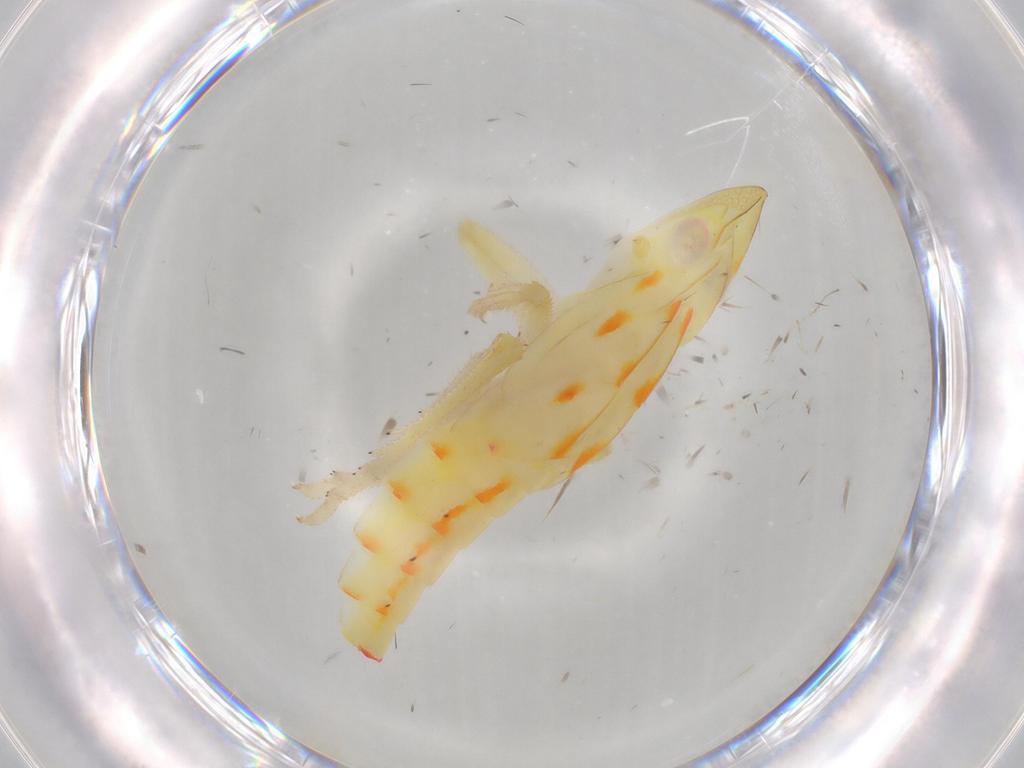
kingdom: Animalia
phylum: Arthropoda
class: Insecta
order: Hemiptera
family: Tropiduchidae
